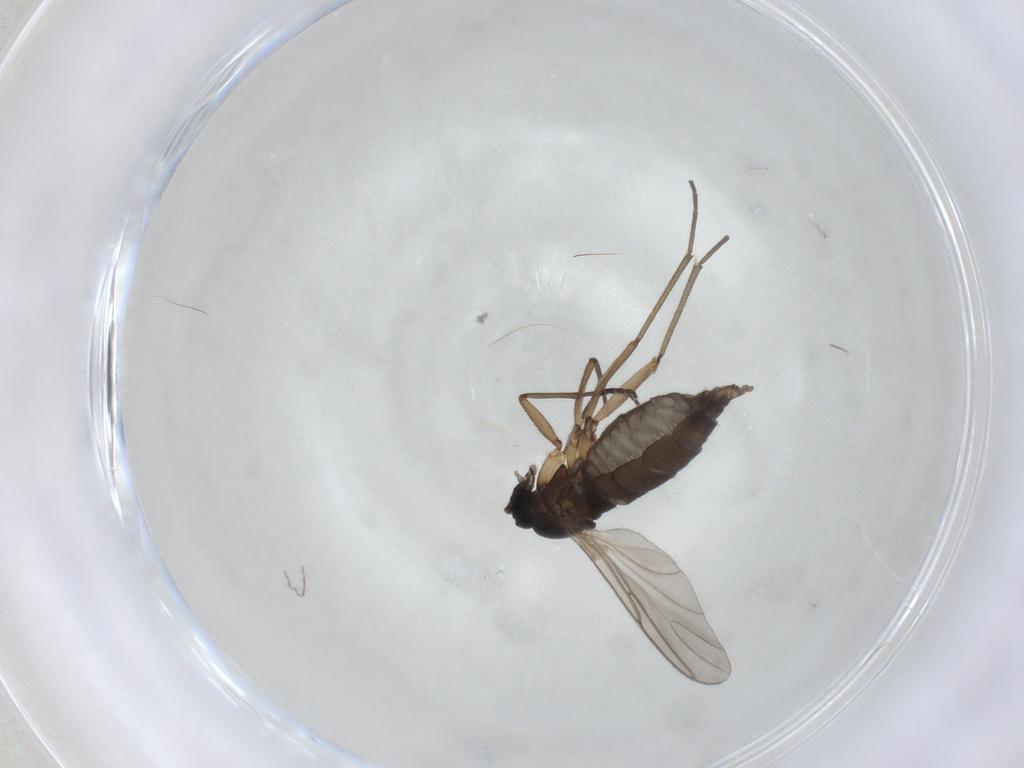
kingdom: Animalia
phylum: Arthropoda
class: Insecta
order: Diptera
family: Sciaridae
